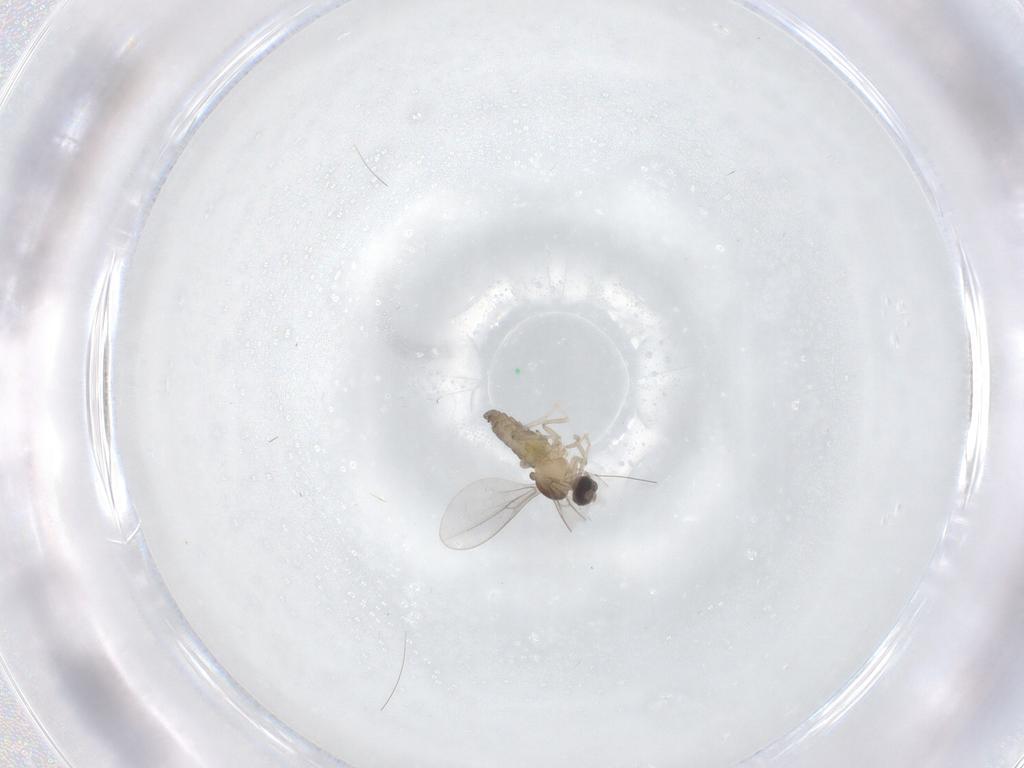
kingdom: Animalia
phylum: Arthropoda
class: Insecta
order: Diptera
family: Cecidomyiidae
